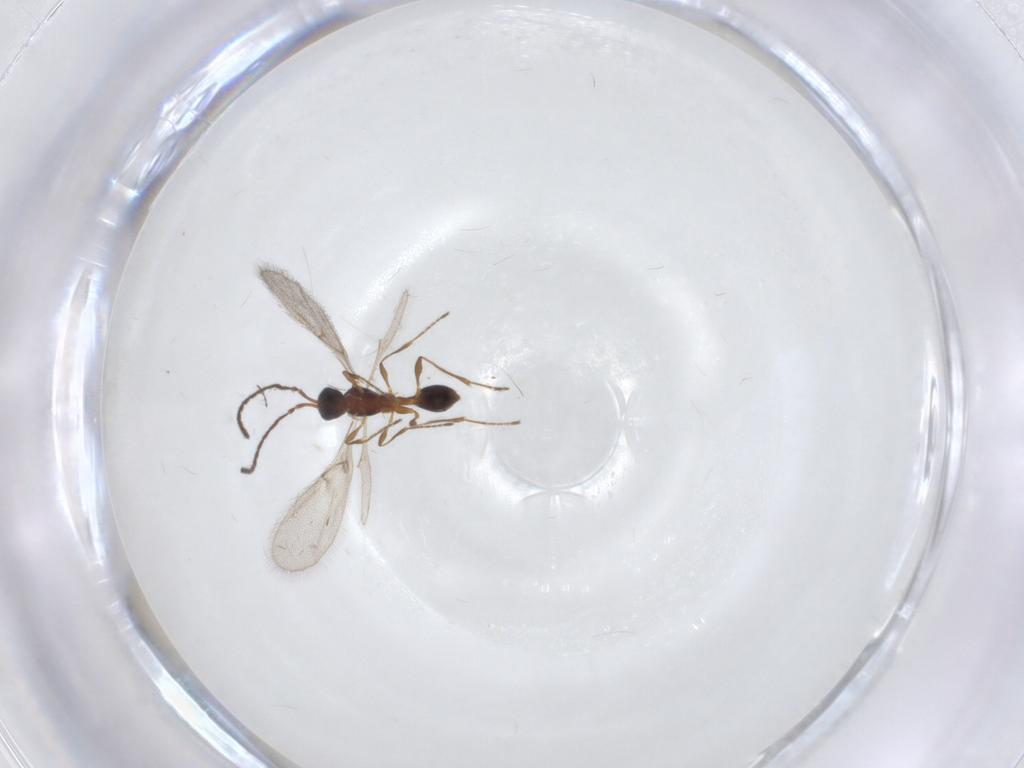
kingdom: Animalia
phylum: Arthropoda
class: Insecta
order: Hymenoptera
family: Diapriidae
